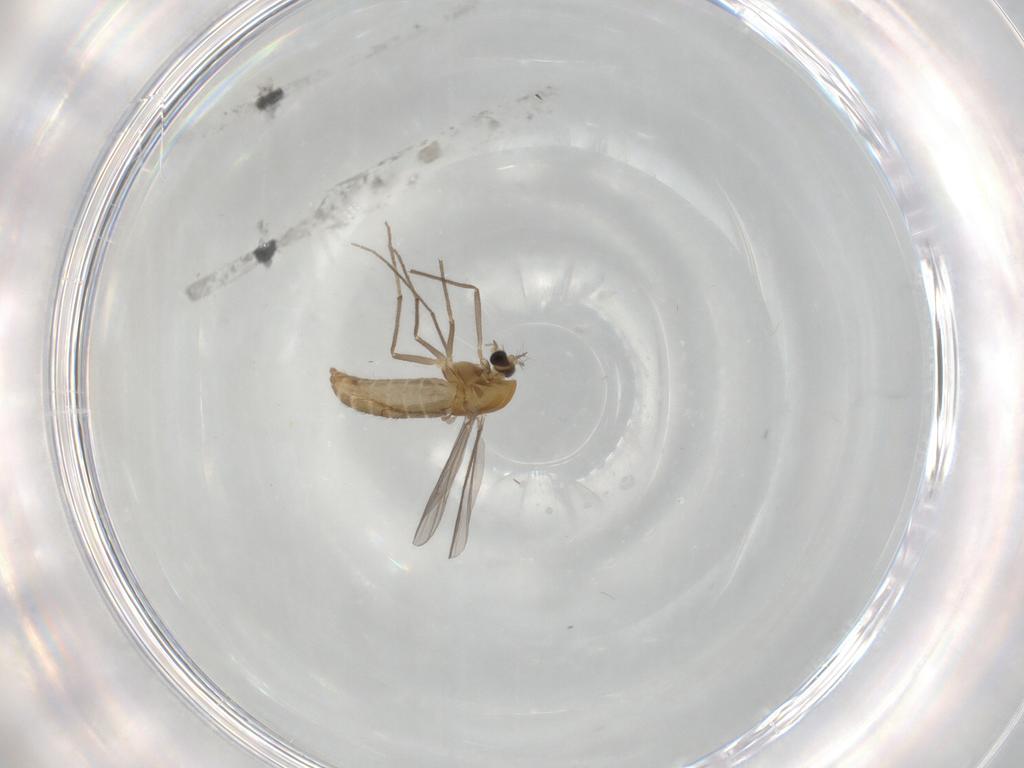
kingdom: Animalia
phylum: Arthropoda
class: Insecta
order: Diptera
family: Chironomidae
